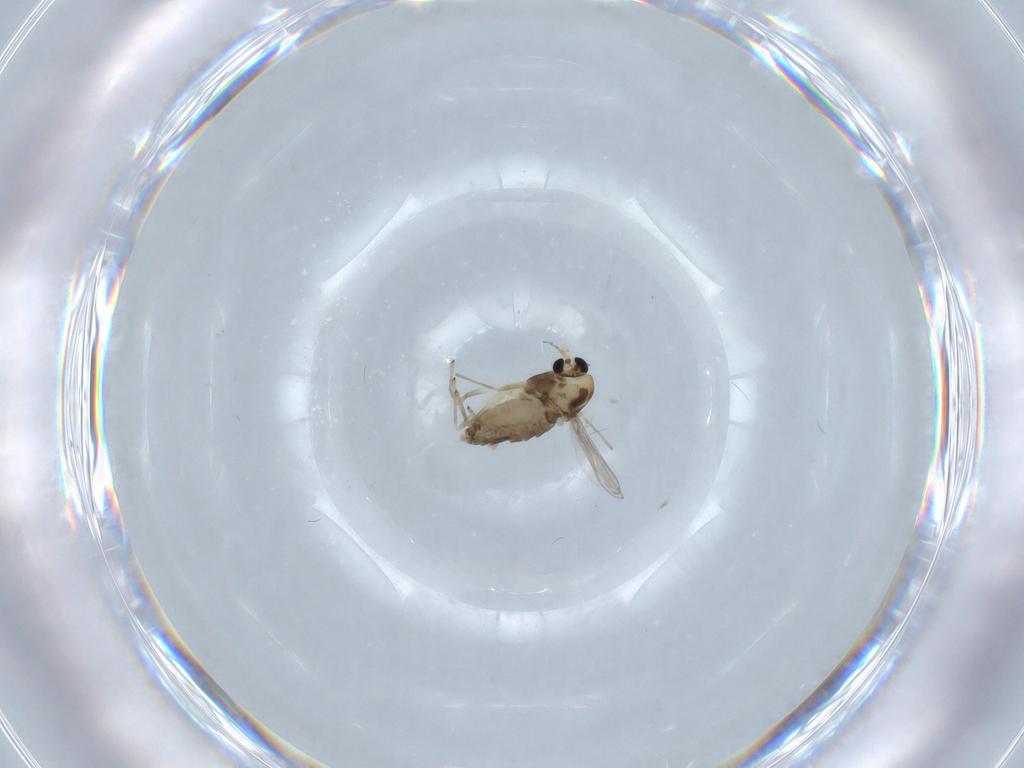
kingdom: Animalia
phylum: Arthropoda
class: Insecta
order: Diptera
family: Chironomidae
